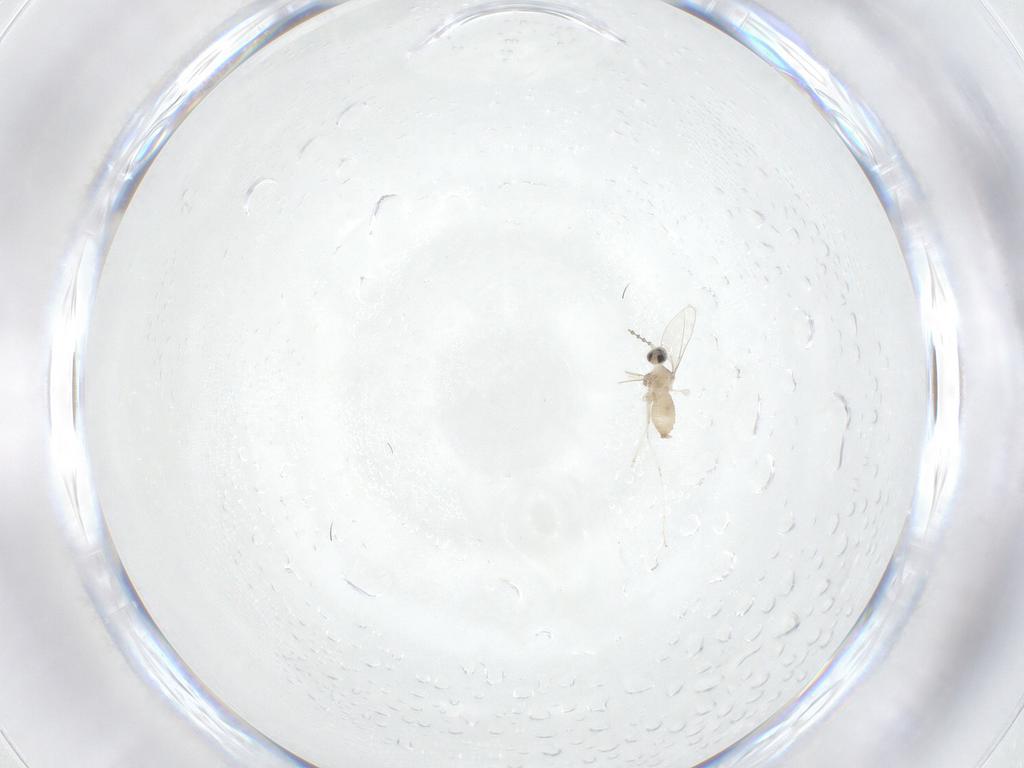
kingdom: Animalia
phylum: Arthropoda
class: Insecta
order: Diptera
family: Cecidomyiidae
